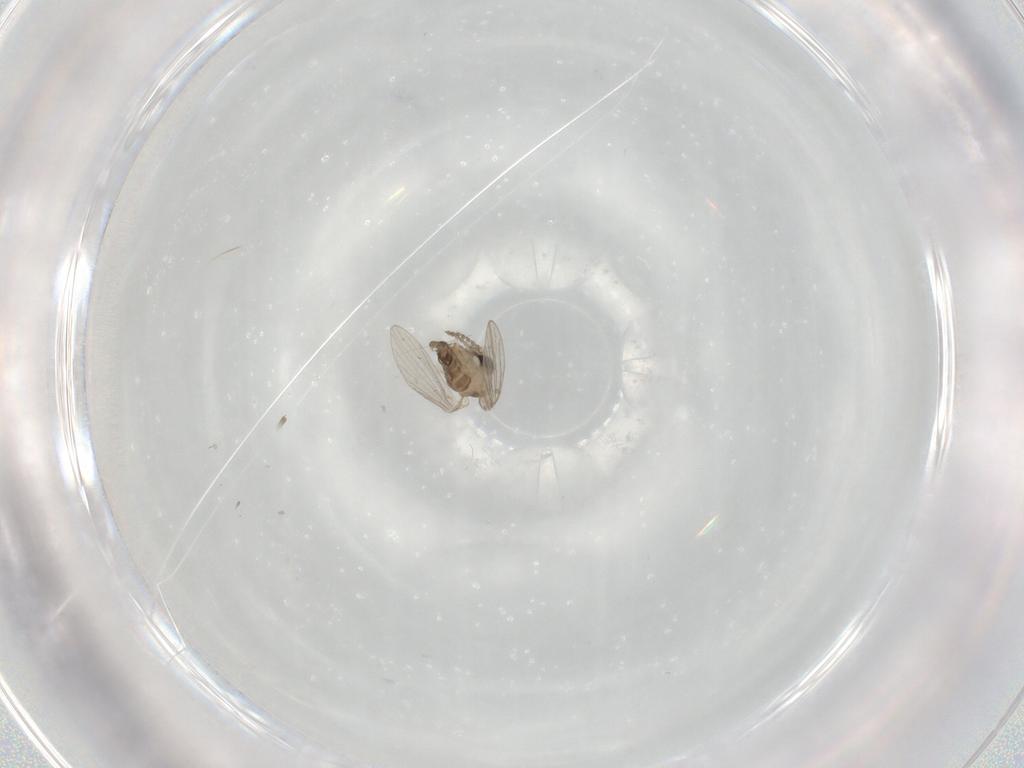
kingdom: Animalia
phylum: Arthropoda
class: Insecta
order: Diptera
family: Psychodidae
